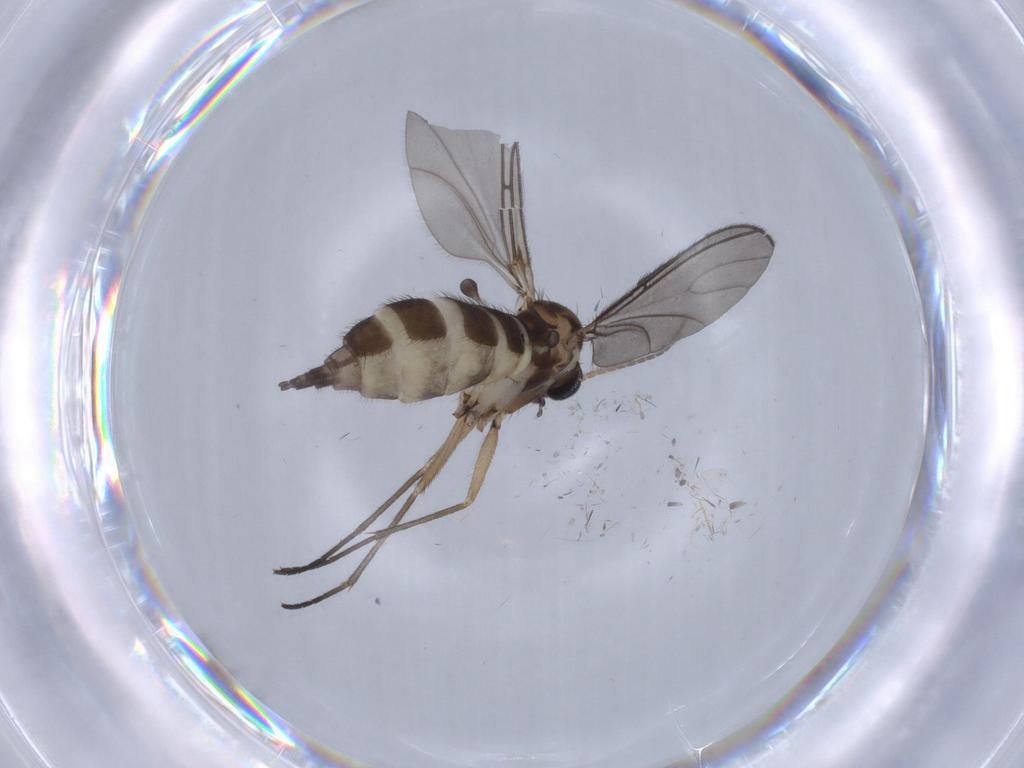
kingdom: Animalia
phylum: Arthropoda
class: Insecta
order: Diptera
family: Sciaridae
